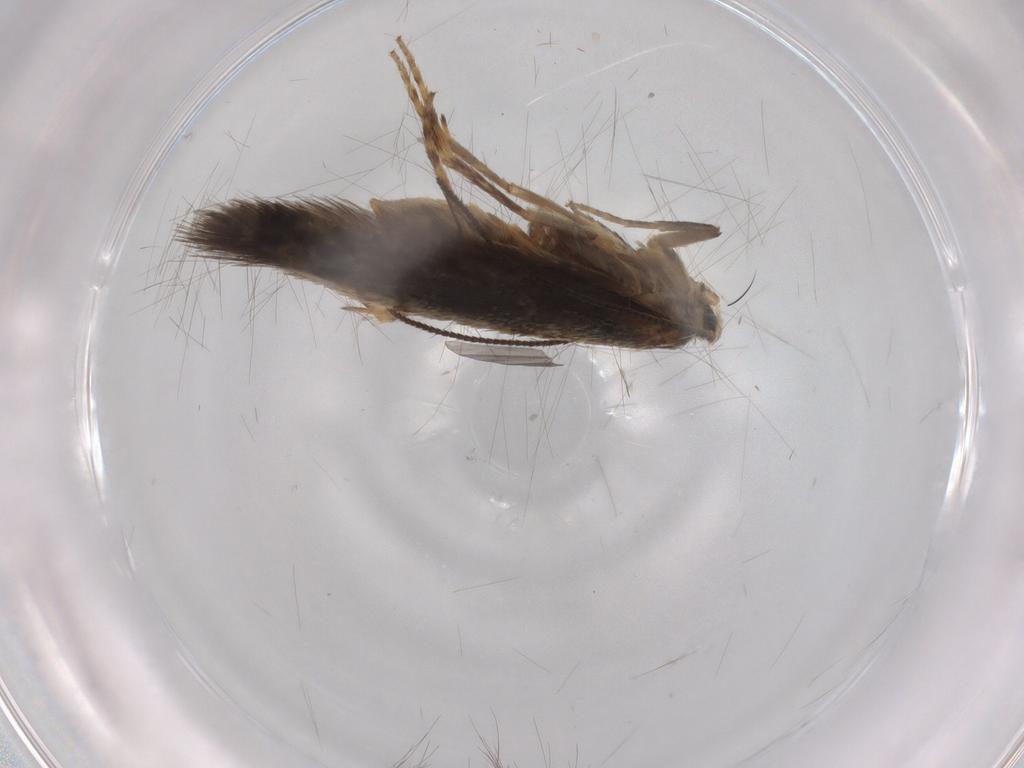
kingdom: Animalia
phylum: Arthropoda
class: Insecta
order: Lepidoptera
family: Nepticulidae
